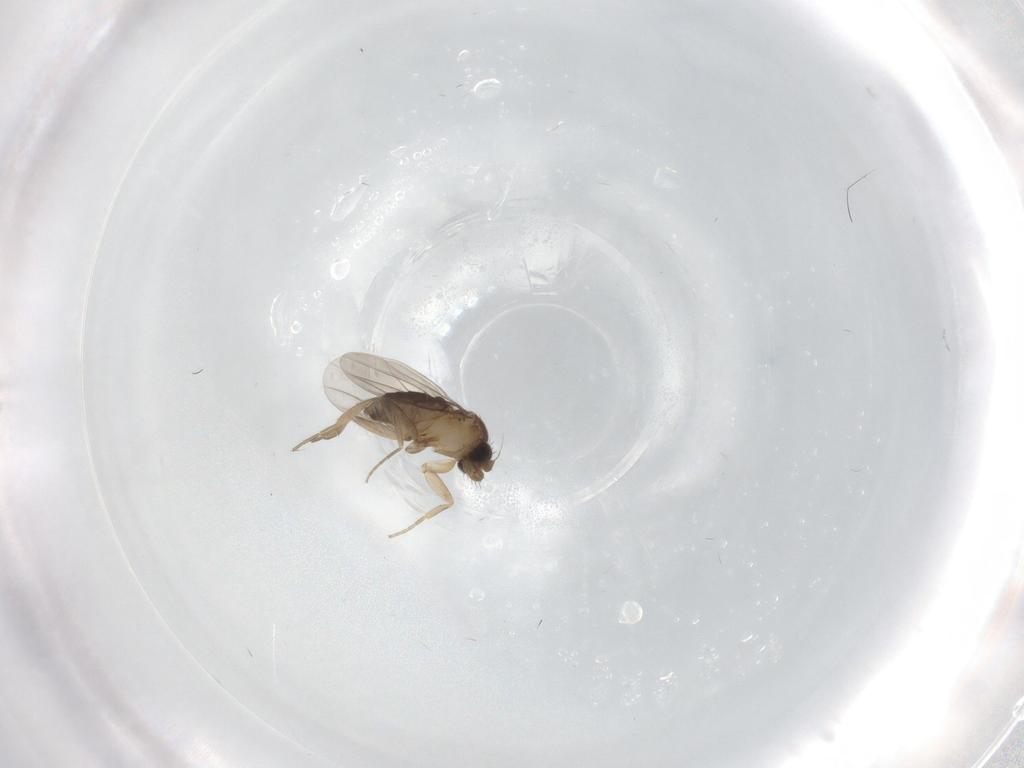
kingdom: Animalia
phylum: Arthropoda
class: Insecta
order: Diptera
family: Phoridae
